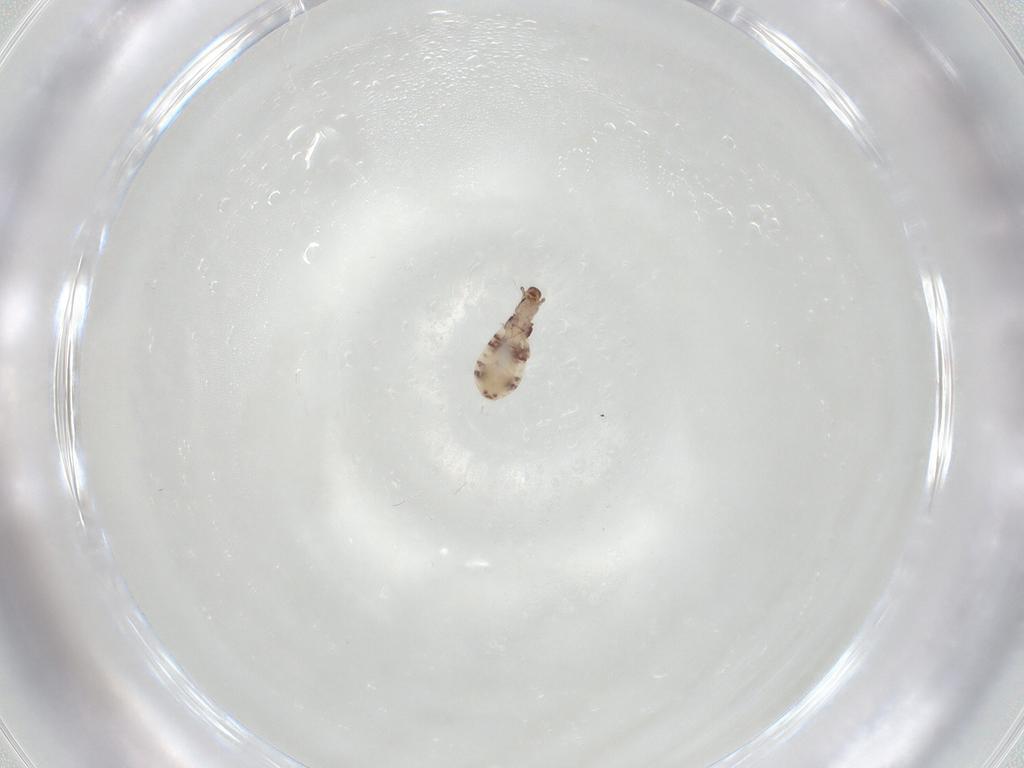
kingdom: Animalia
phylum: Arthropoda
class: Insecta
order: Psocodea
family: Liposcelididae
